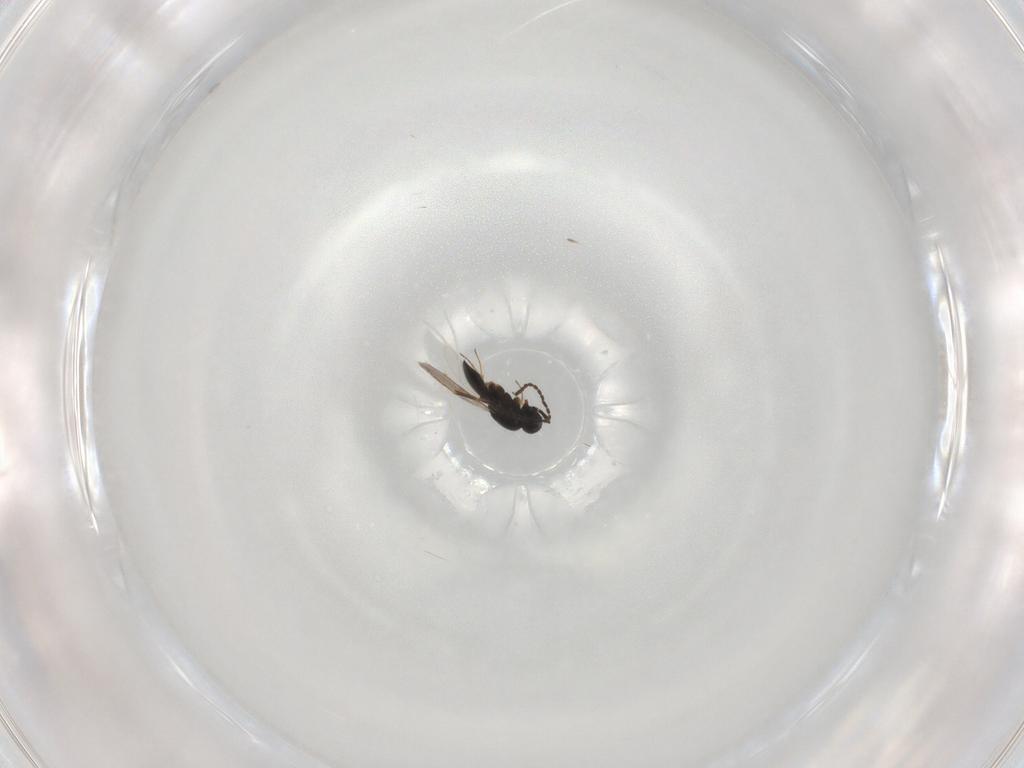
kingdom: Animalia
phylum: Arthropoda
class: Insecta
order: Hymenoptera
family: Scelionidae
